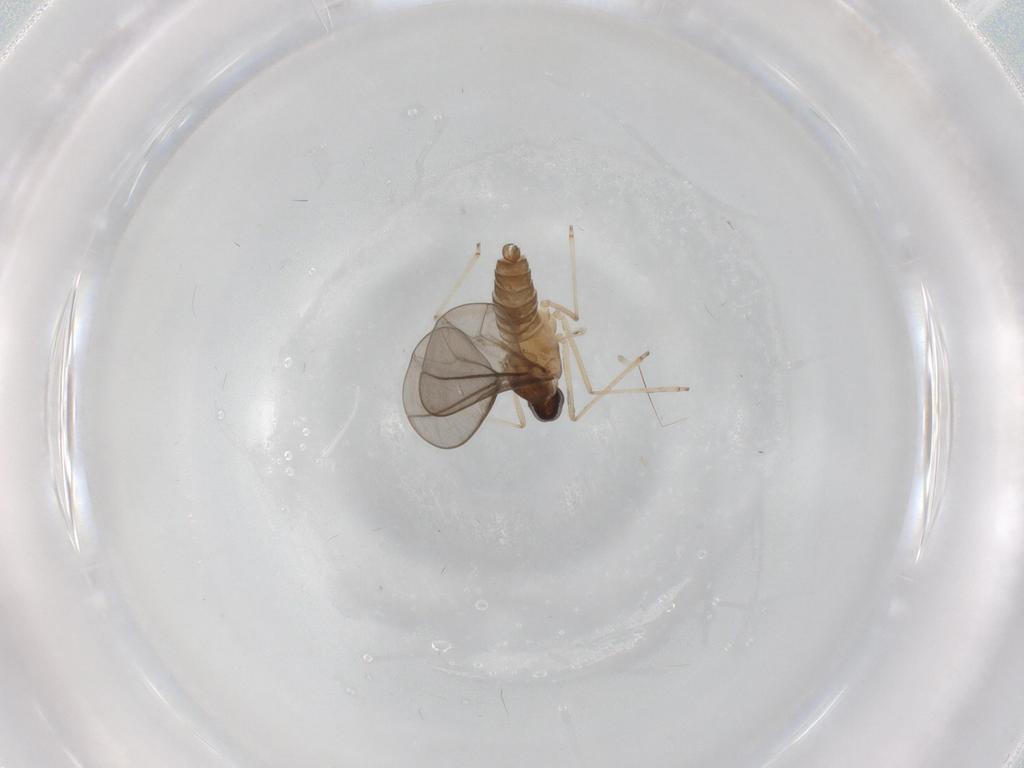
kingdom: Animalia
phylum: Arthropoda
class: Insecta
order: Diptera
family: Cecidomyiidae
